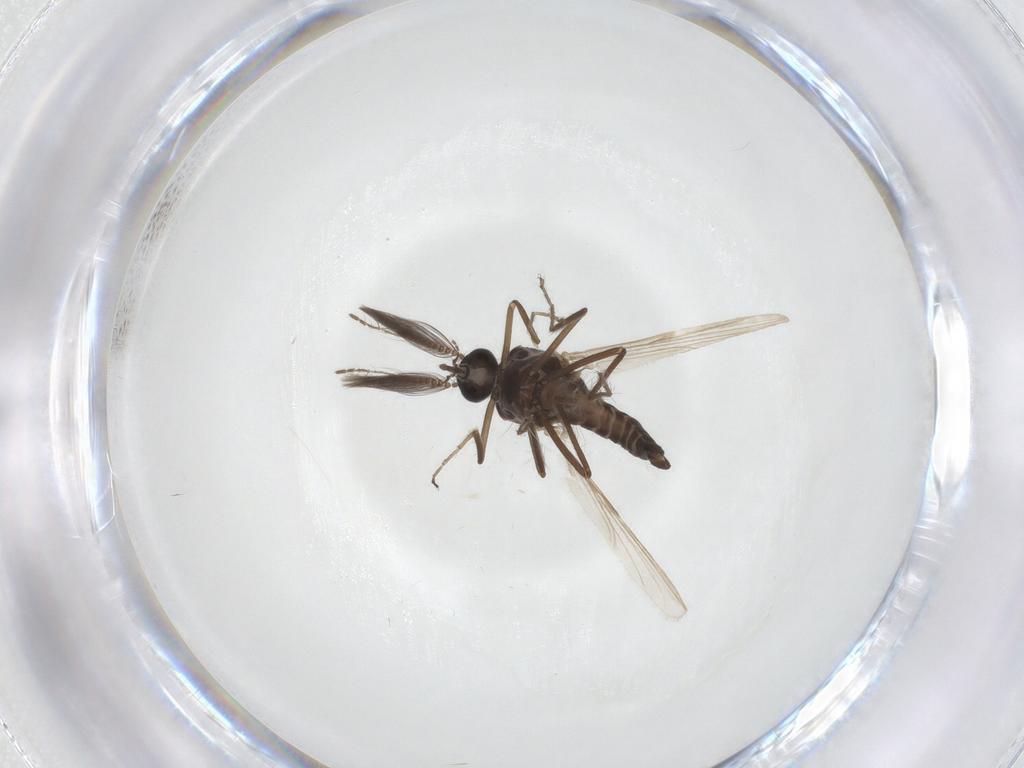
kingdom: Animalia
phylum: Arthropoda
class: Insecta
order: Diptera
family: Ceratopogonidae
